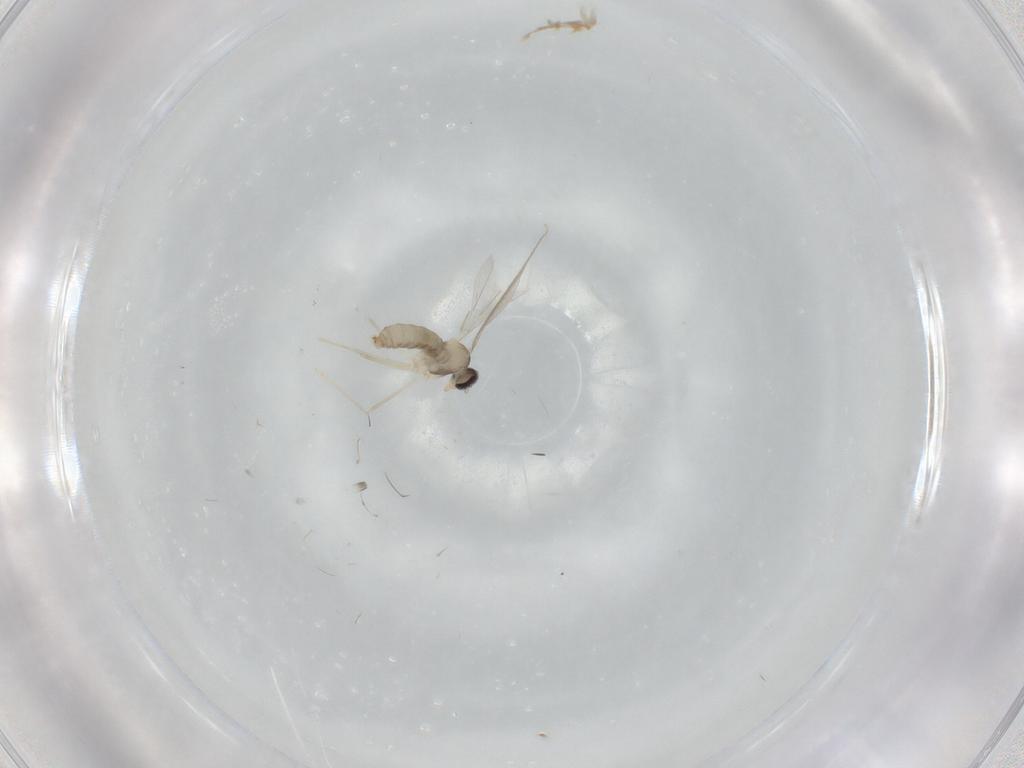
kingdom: Animalia
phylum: Arthropoda
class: Insecta
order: Diptera
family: Cecidomyiidae
